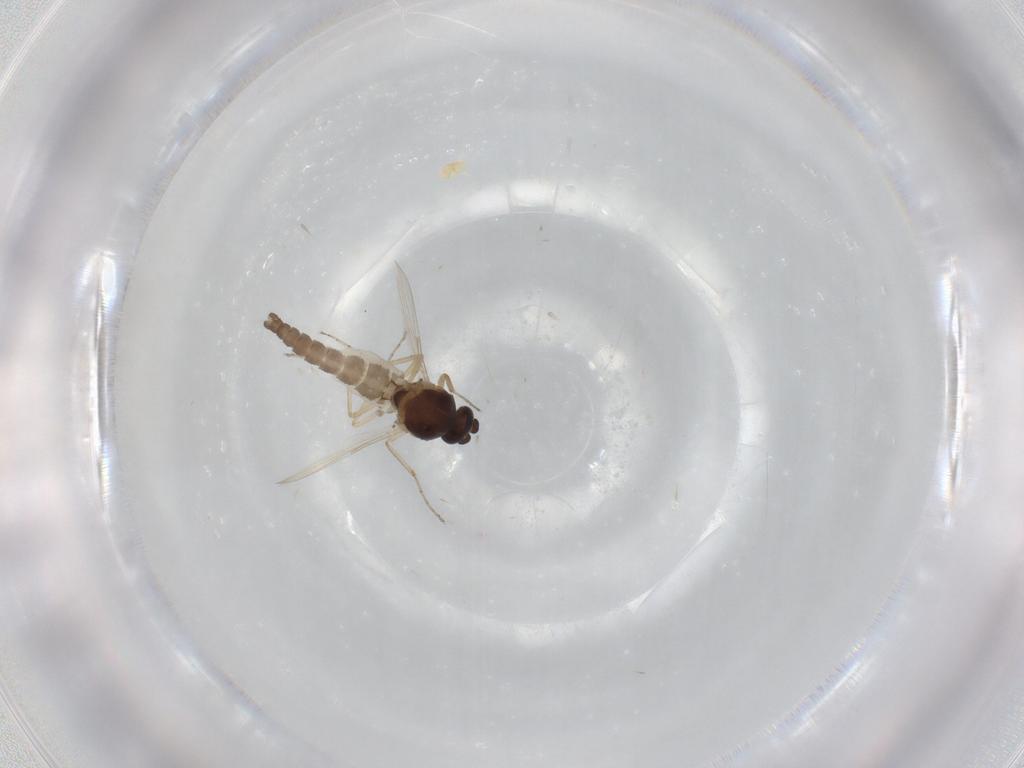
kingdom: Animalia
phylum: Arthropoda
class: Insecta
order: Diptera
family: Ceratopogonidae
